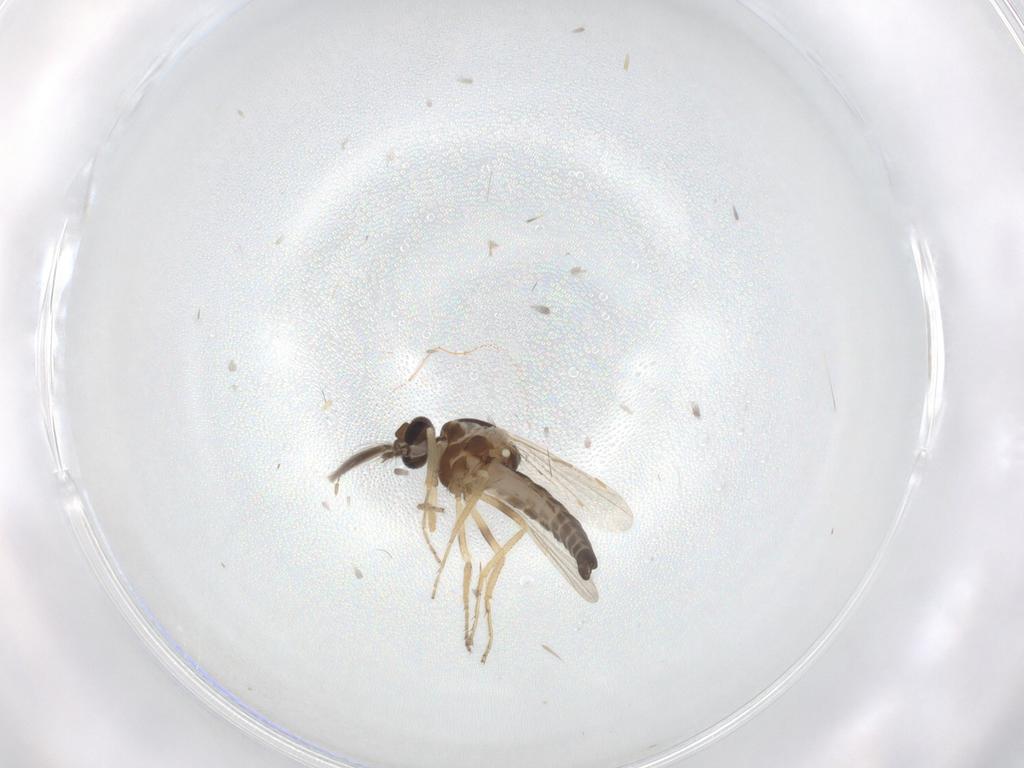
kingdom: Animalia
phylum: Arthropoda
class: Insecta
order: Diptera
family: Ceratopogonidae
